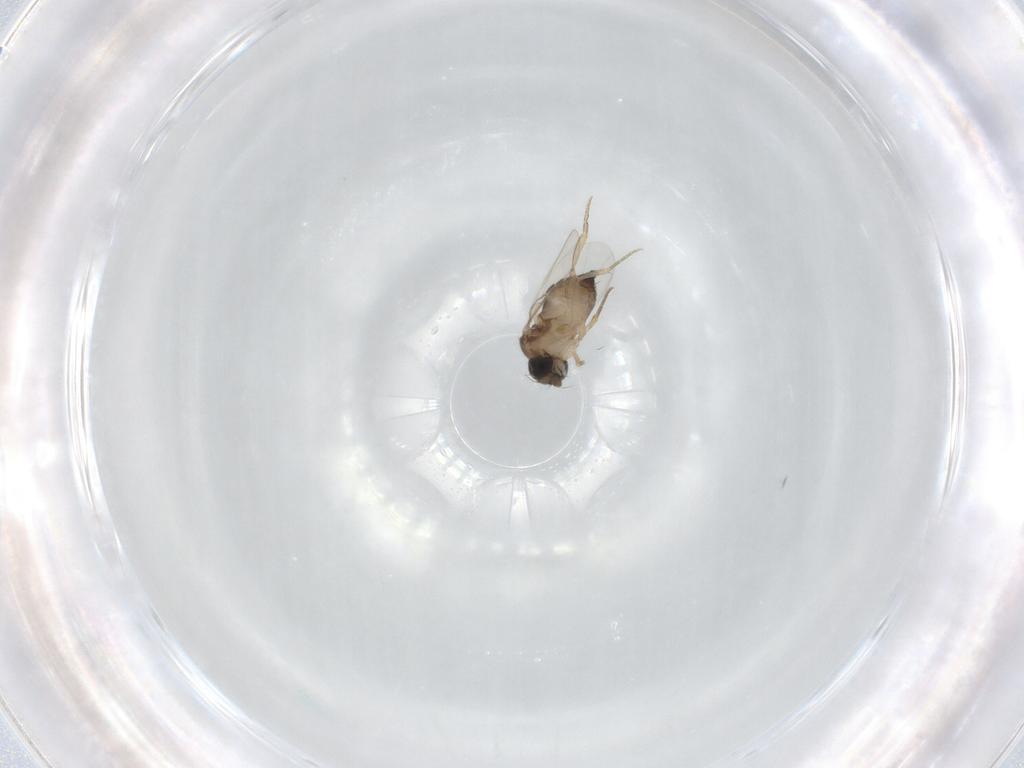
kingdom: Animalia
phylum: Arthropoda
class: Insecta
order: Diptera
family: Phoridae
